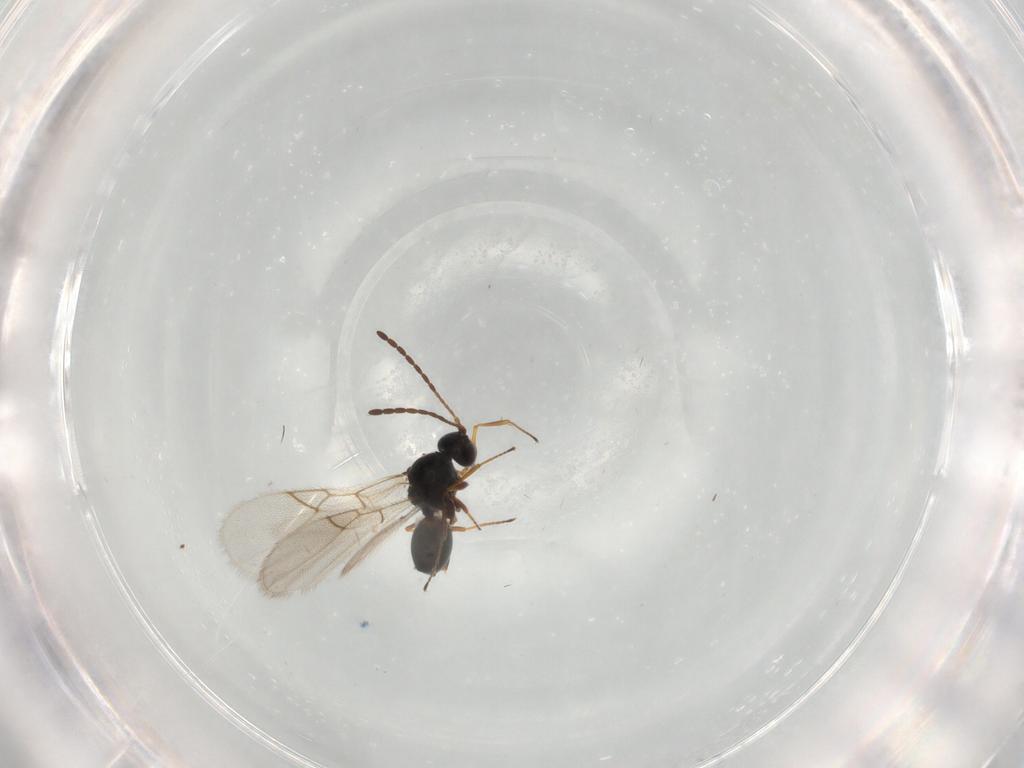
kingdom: Animalia
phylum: Arthropoda
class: Insecta
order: Hymenoptera
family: Figitidae
